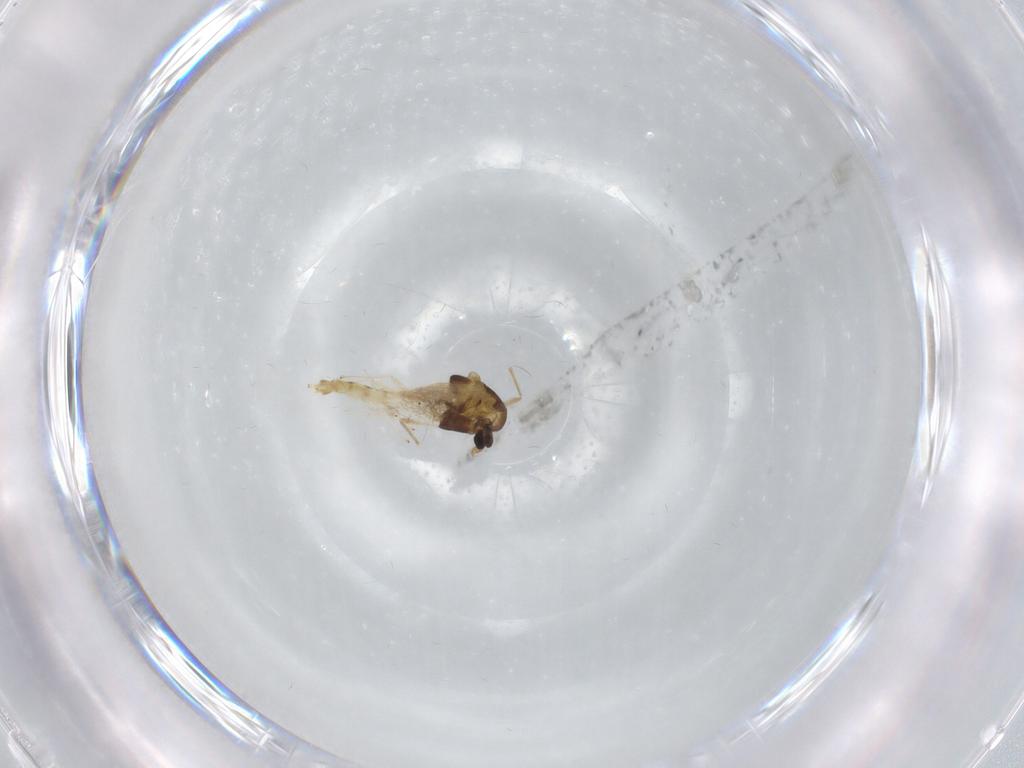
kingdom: Animalia
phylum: Arthropoda
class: Insecta
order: Diptera
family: Chironomidae
